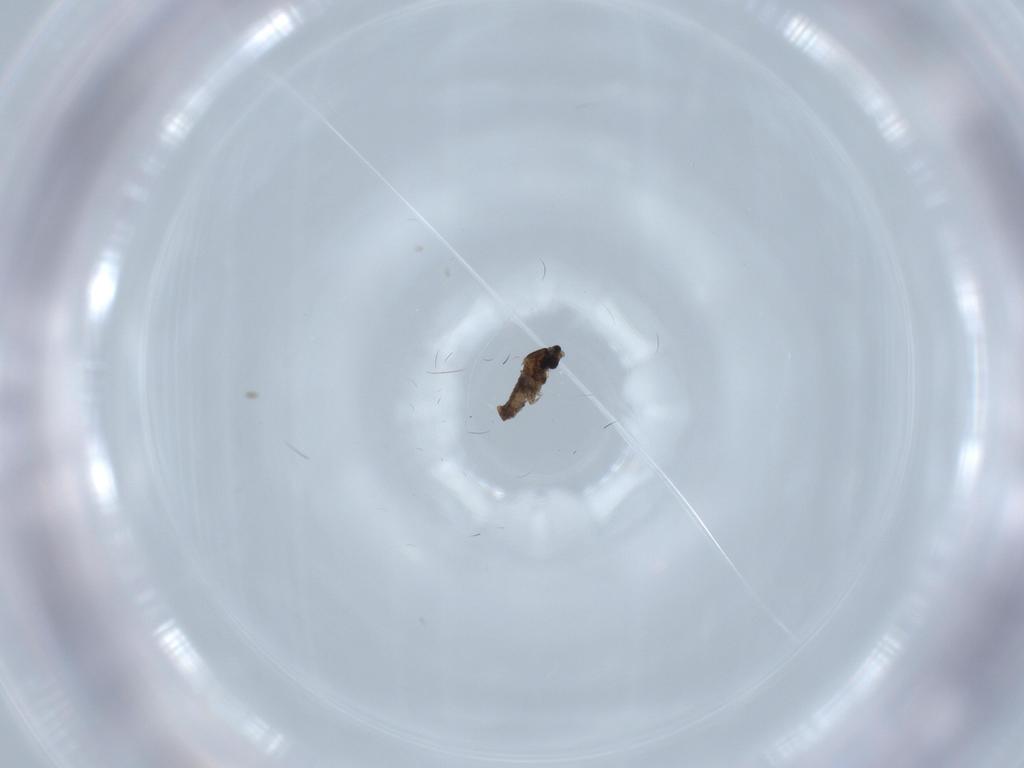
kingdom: Animalia
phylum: Arthropoda
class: Insecta
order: Diptera
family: Cecidomyiidae
